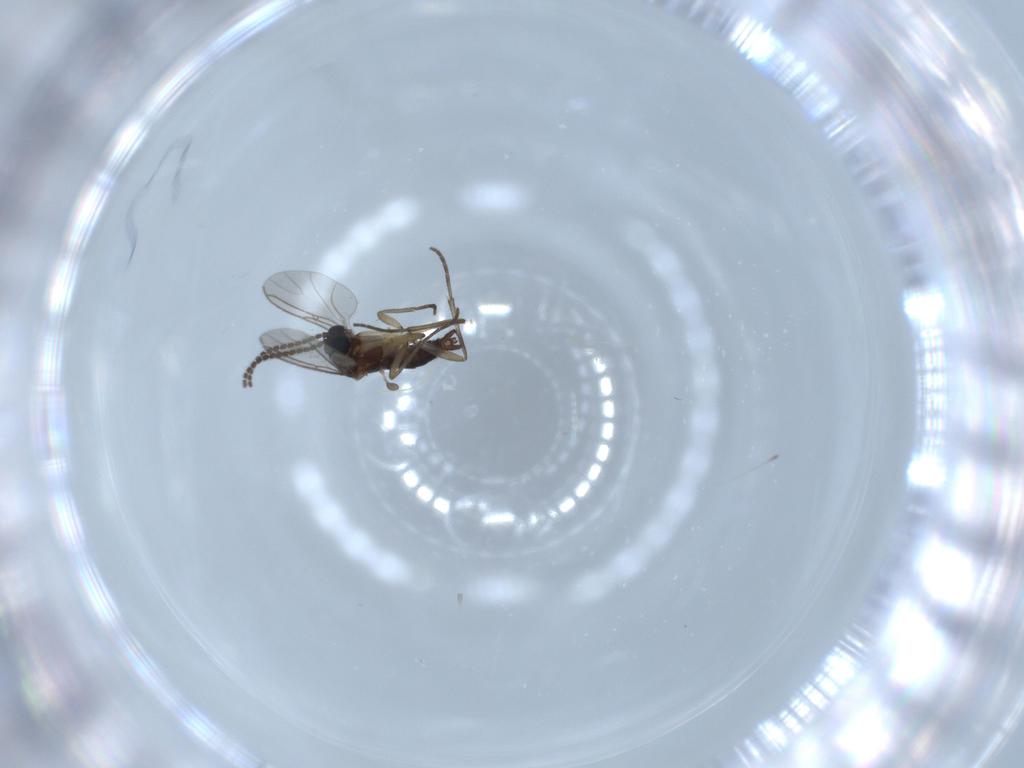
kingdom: Animalia
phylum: Arthropoda
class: Insecta
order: Diptera
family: Sciaridae
